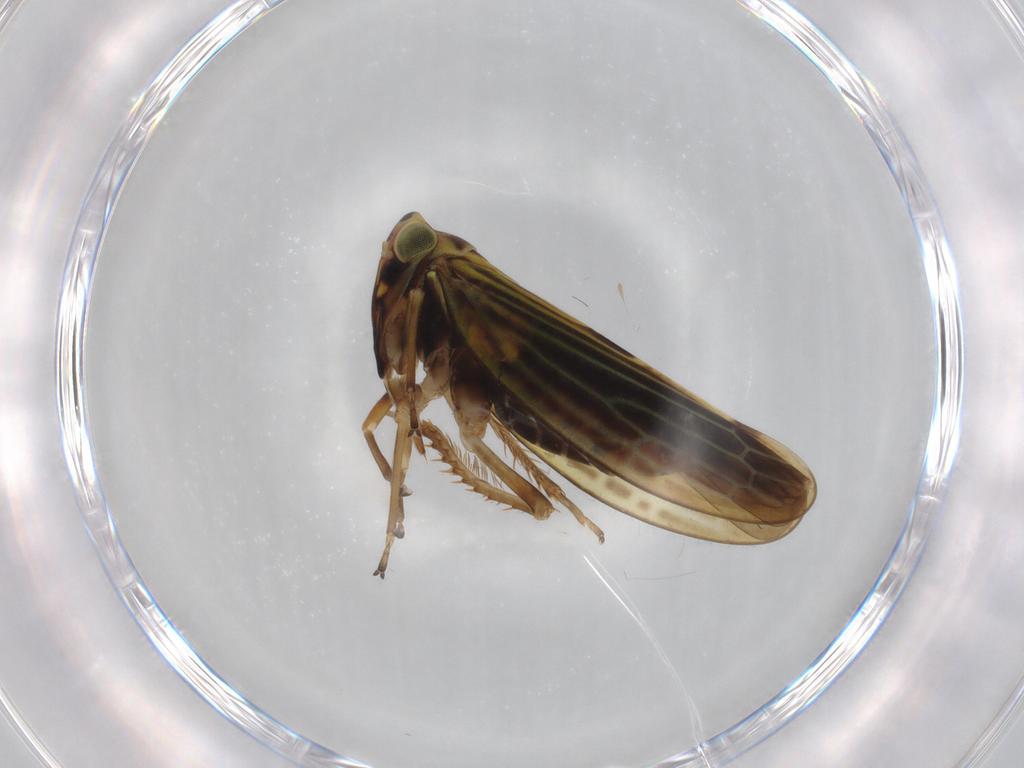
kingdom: Animalia
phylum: Arthropoda
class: Insecta
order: Hemiptera
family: Cicadellidae
